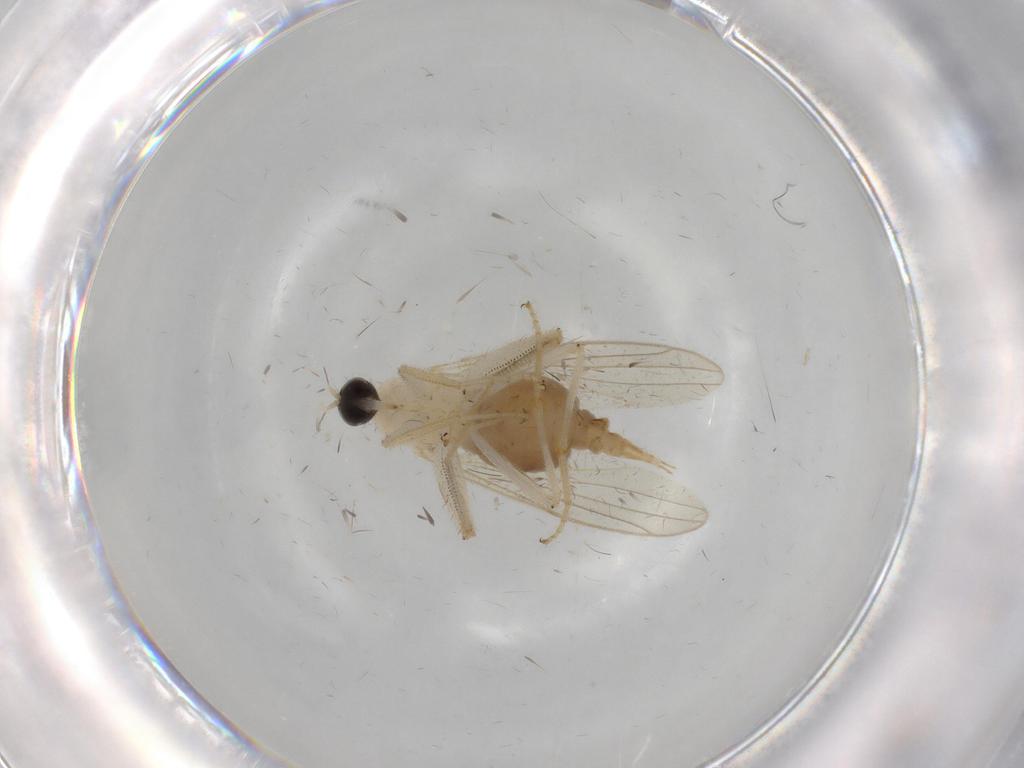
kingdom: Animalia
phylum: Arthropoda
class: Insecta
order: Diptera
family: Hybotidae
